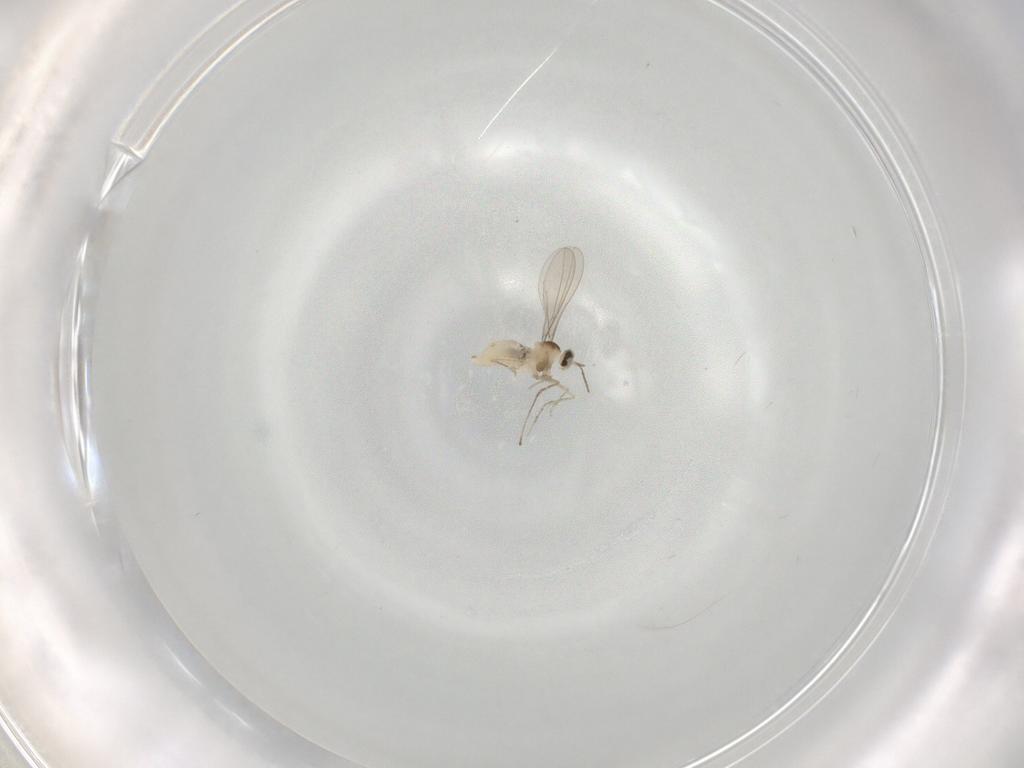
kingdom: Animalia
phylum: Arthropoda
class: Insecta
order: Diptera
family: Cecidomyiidae
